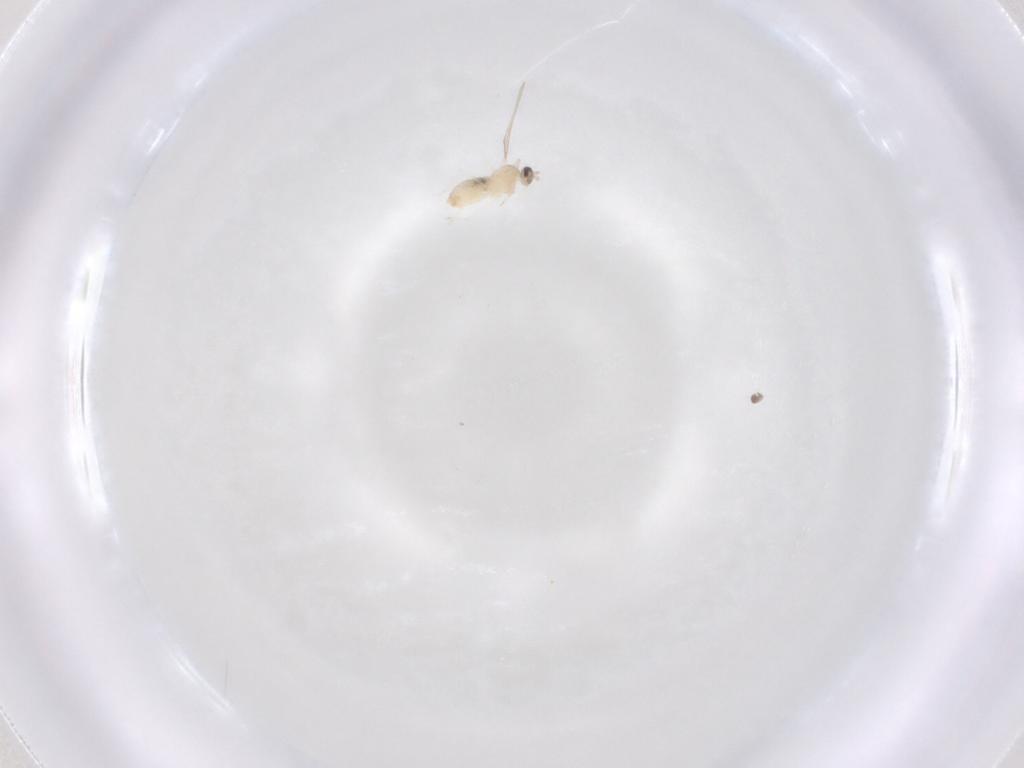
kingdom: Animalia
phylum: Arthropoda
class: Insecta
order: Diptera
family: Cecidomyiidae
